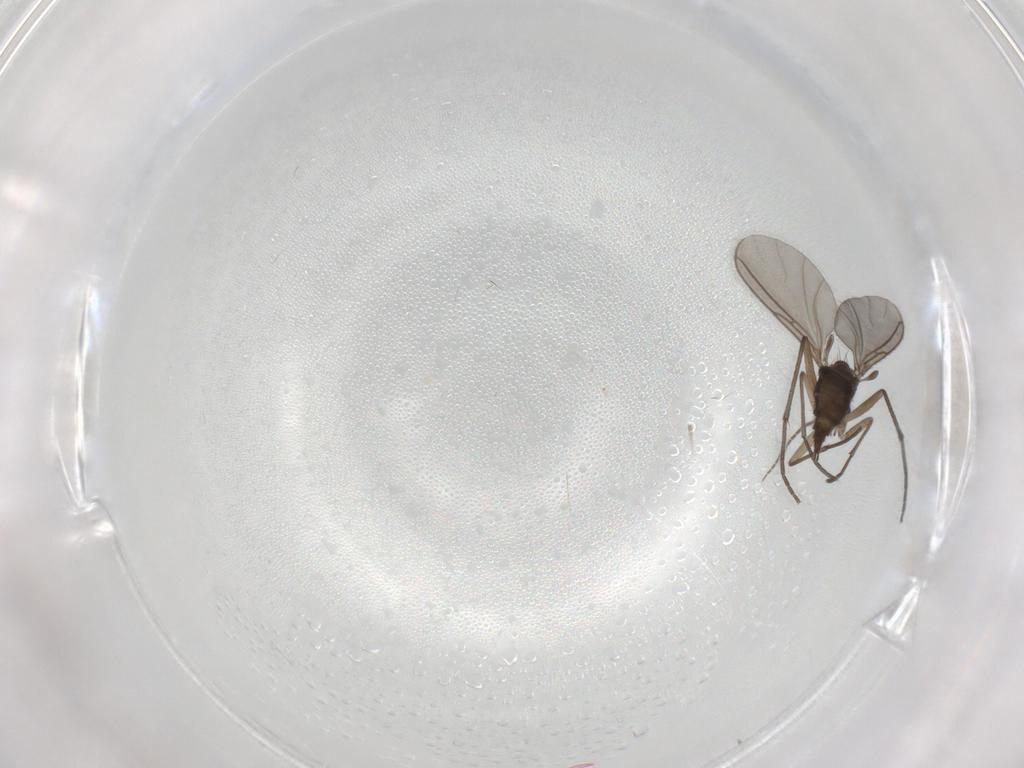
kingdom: Animalia
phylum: Arthropoda
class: Insecta
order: Diptera
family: Sciaridae
